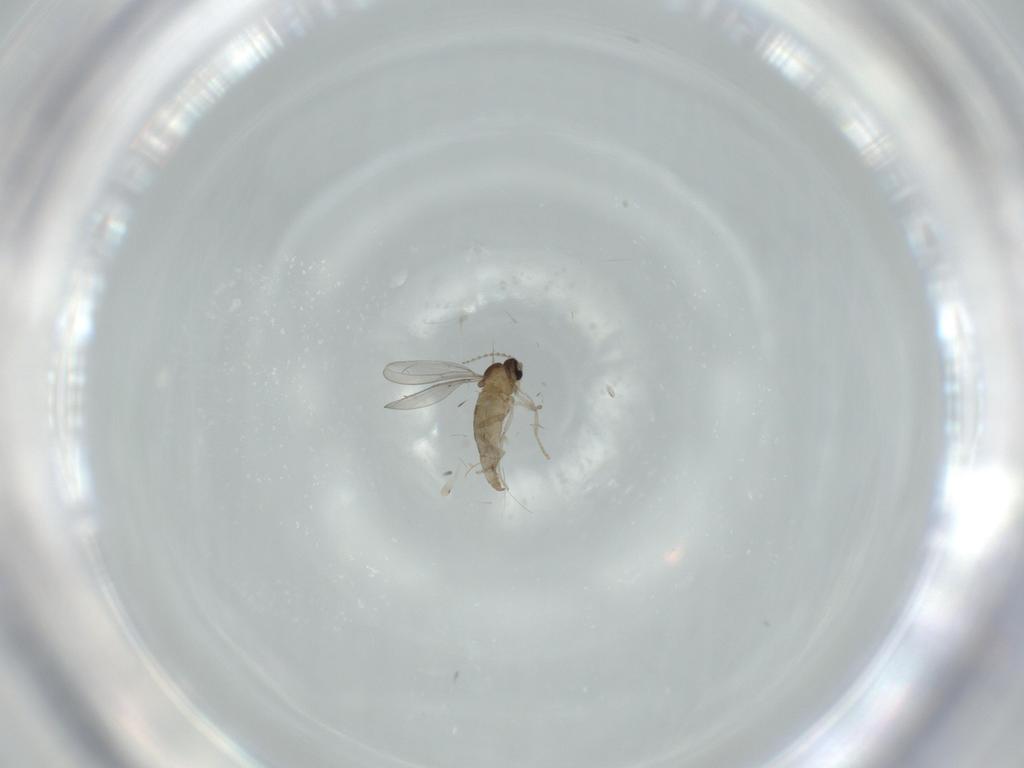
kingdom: Animalia
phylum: Arthropoda
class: Insecta
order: Diptera
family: Cecidomyiidae
